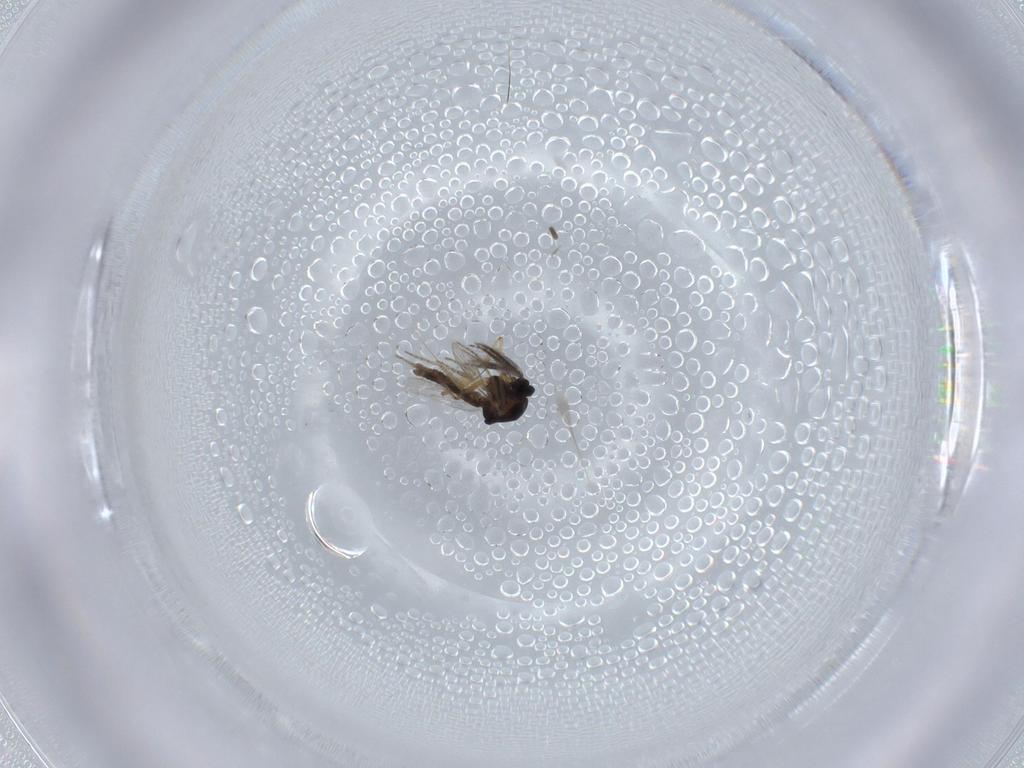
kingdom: Animalia
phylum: Arthropoda
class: Insecta
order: Diptera
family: Ceratopogonidae
